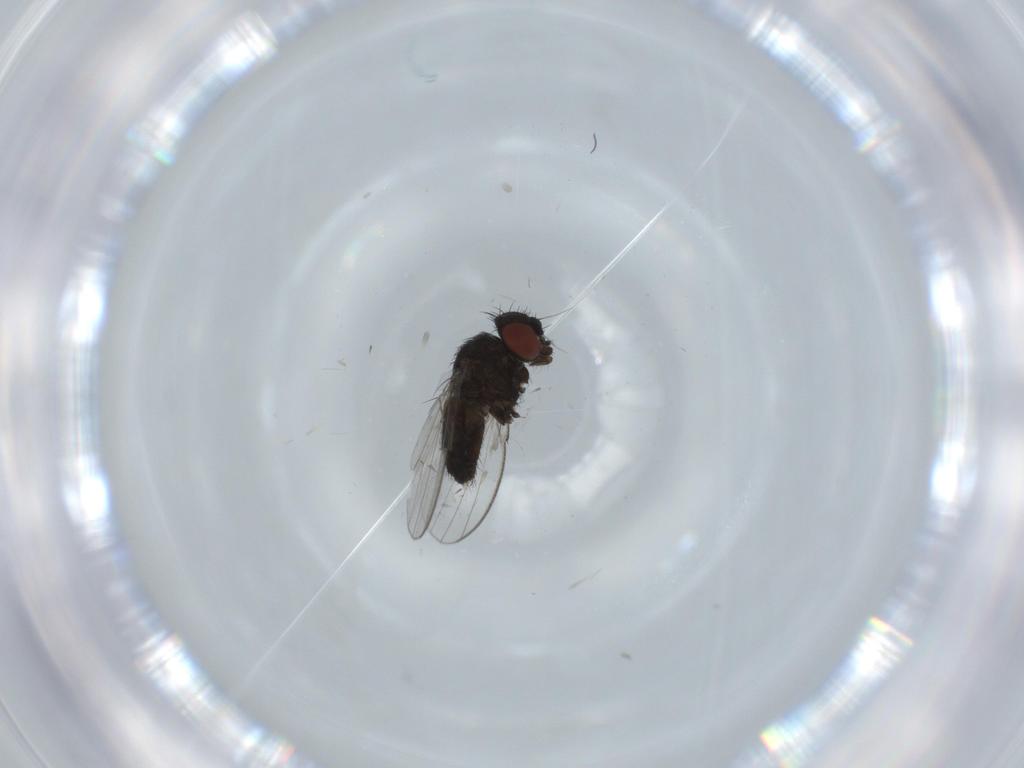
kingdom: Animalia
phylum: Arthropoda
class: Insecta
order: Diptera
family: Milichiidae
